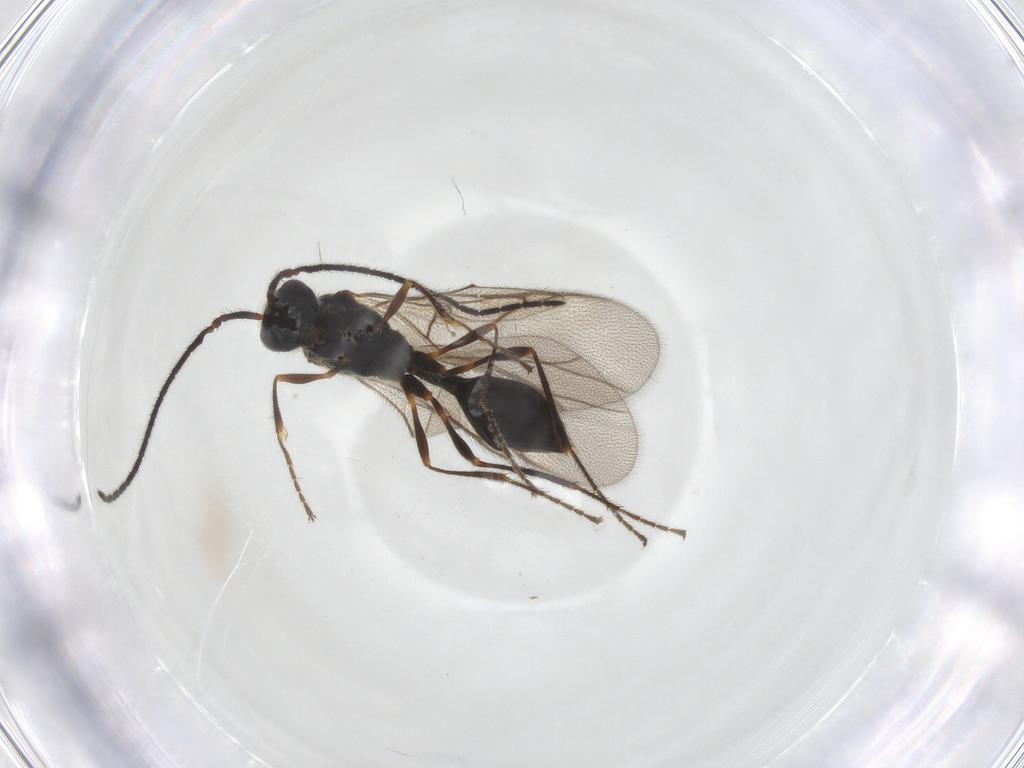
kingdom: Animalia
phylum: Arthropoda
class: Insecta
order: Hymenoptera
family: Diapriidae
